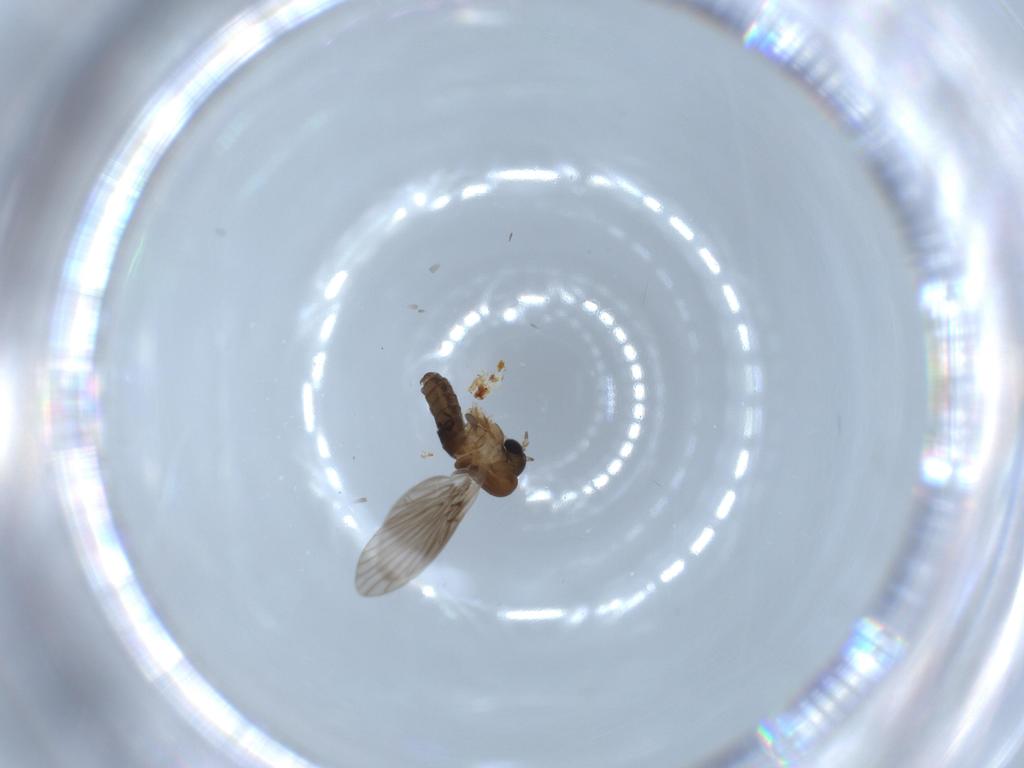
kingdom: Animalia
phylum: Arthropoda
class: Insecta
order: Diptera
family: Psychodidae
